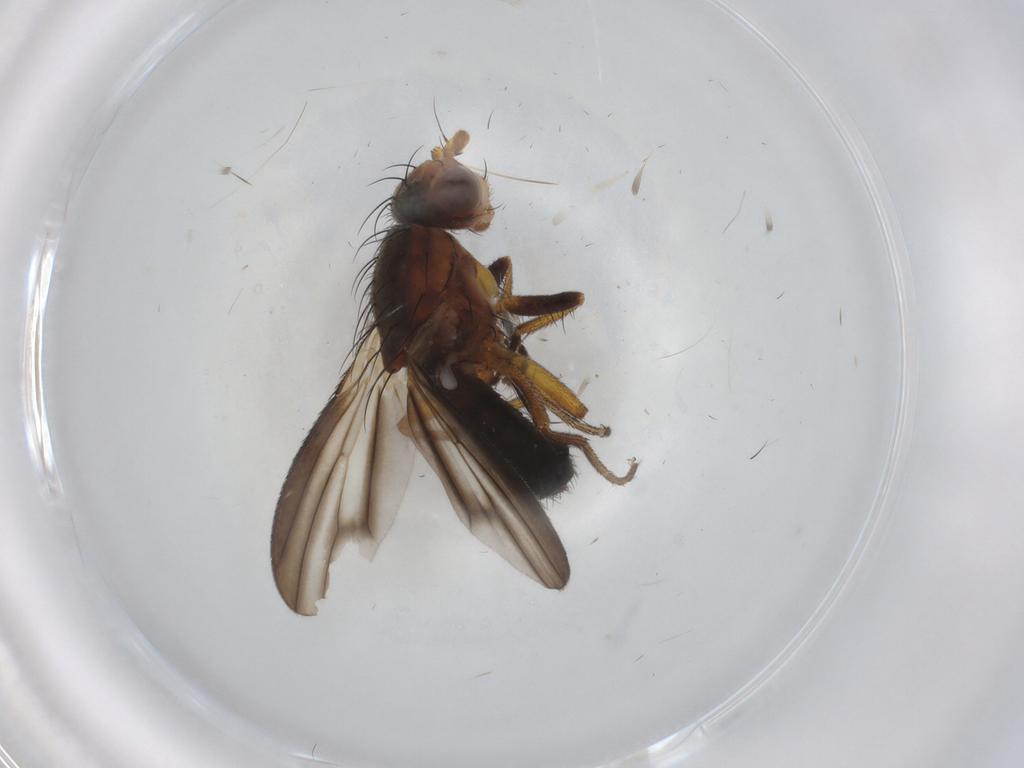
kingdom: Animalia
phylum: Arthropoda
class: Insecta
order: Diptera
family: Heleomyzidae
